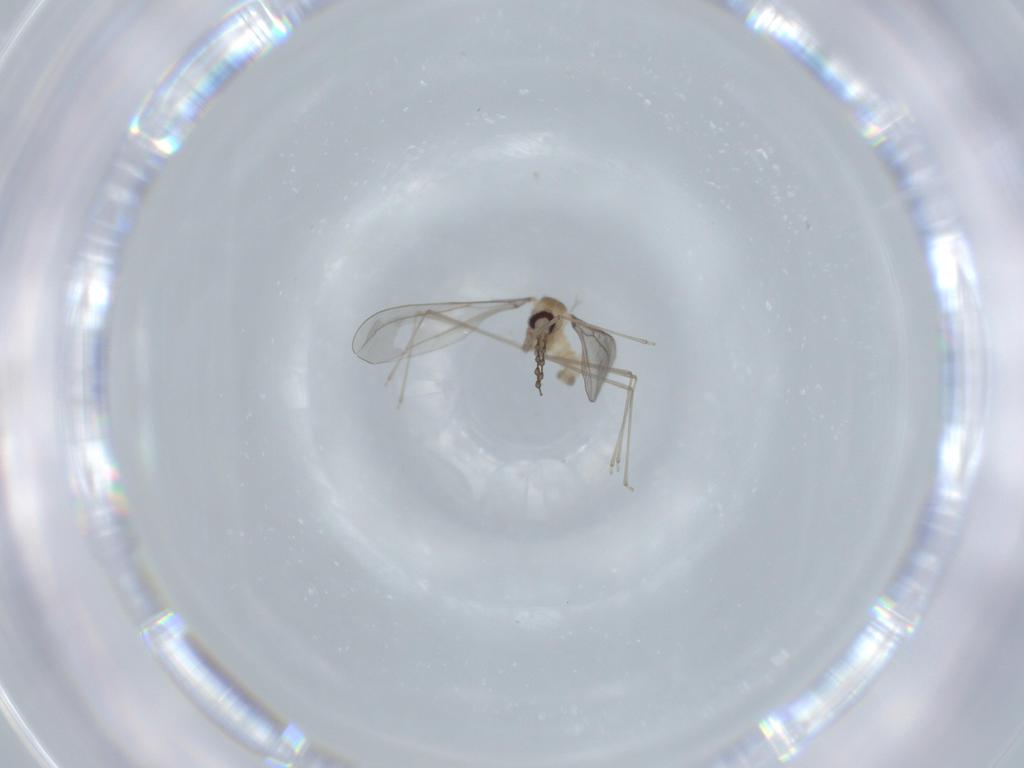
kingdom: Animalia
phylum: Arthropoda
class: Insecta
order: Diptera
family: Cecidomyiidae
